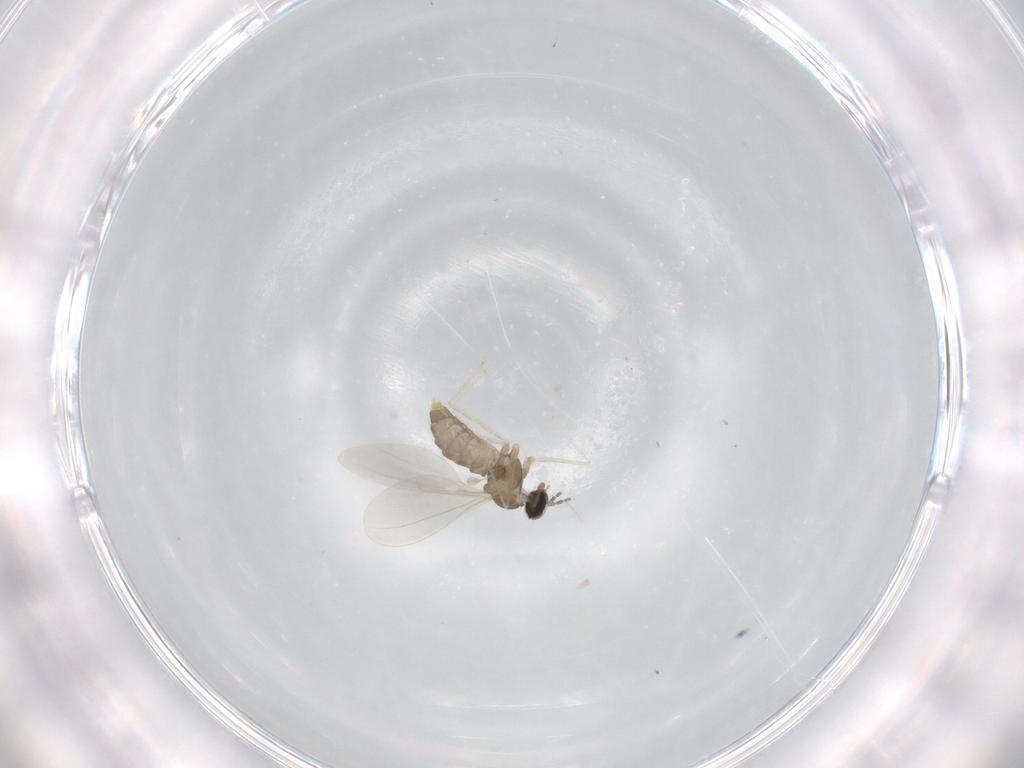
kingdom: Animalia
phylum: Arthropoda
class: Insecta
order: Diptera
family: Cecidomyiidae
